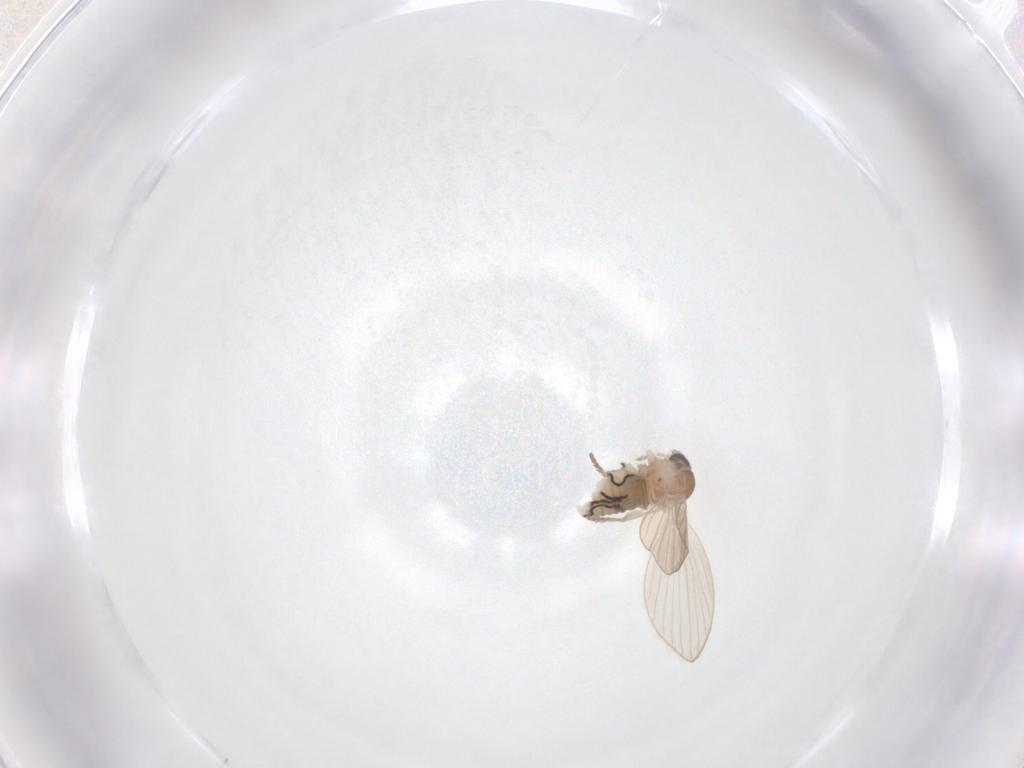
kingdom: Animalia
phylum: Arthropoda
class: Insecta
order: Diptera
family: Psychodidae
